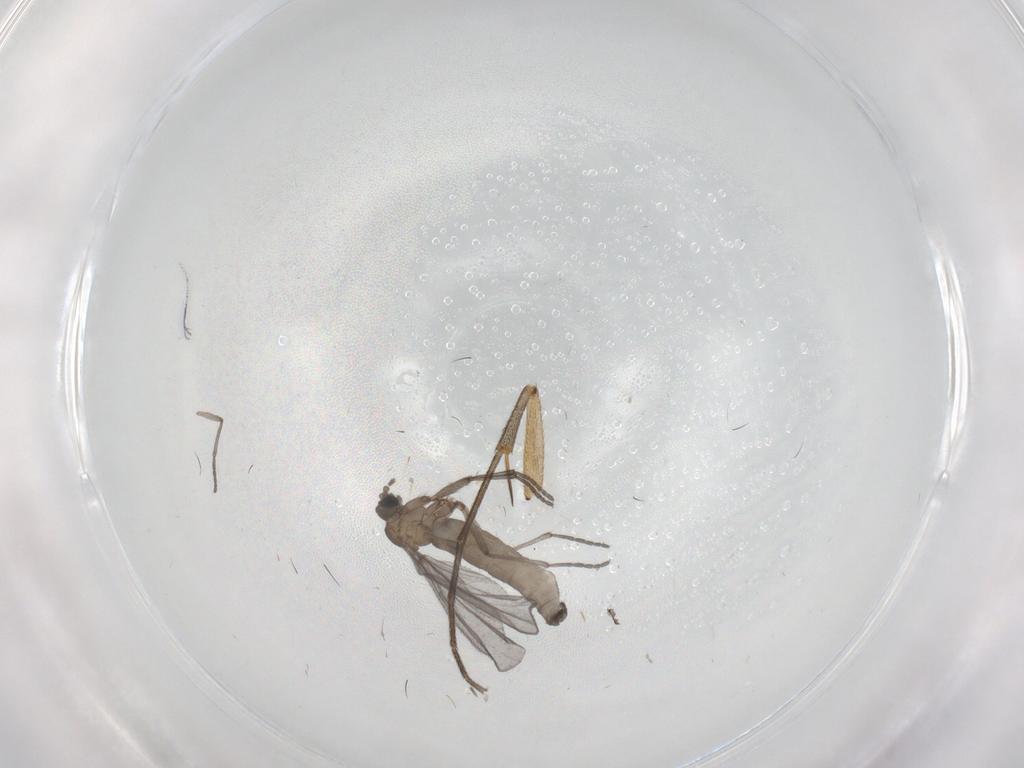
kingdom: Animalia
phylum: Arthropoda
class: Insecta
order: Diptera
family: Sciaridae
